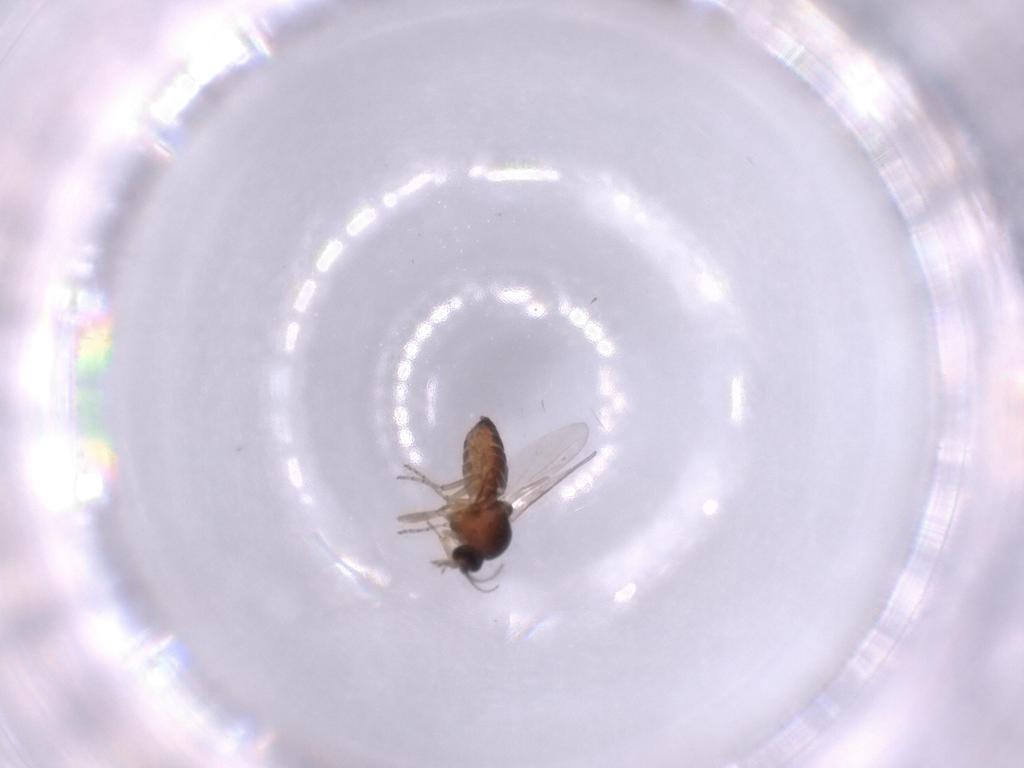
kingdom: Animalia
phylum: Arthropoda
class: Insecta
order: Diptera
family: Ceratopogonidae
